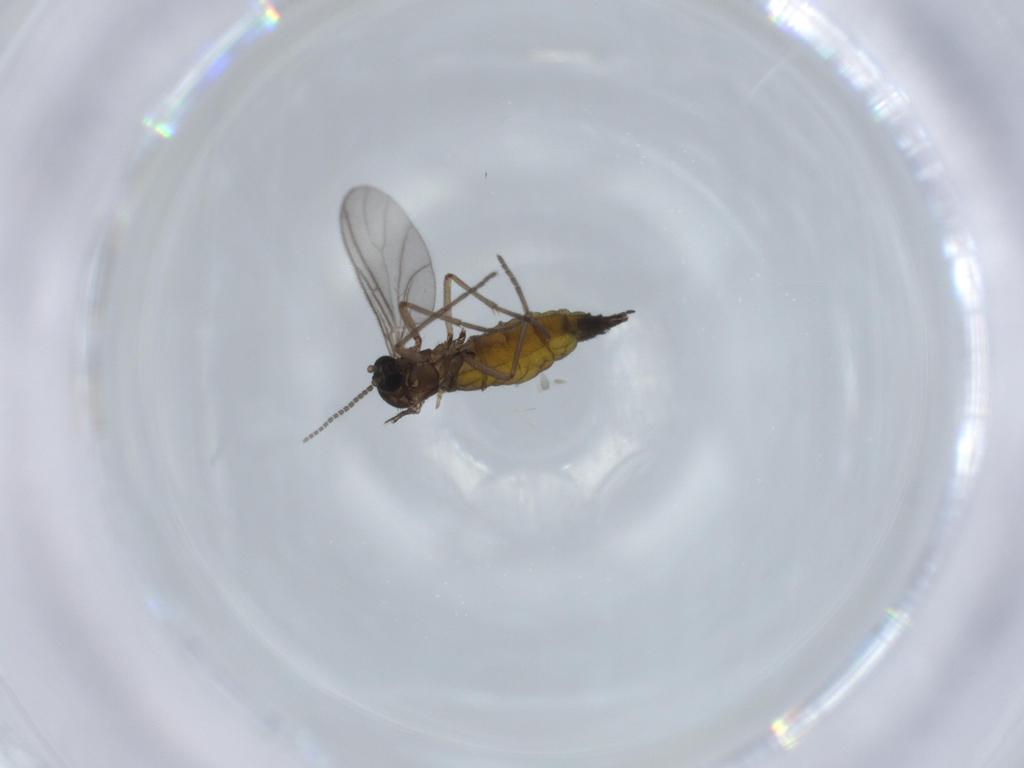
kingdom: Animalia
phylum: Arthropoda
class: Insecta
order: Diptera
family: Sciaridae
